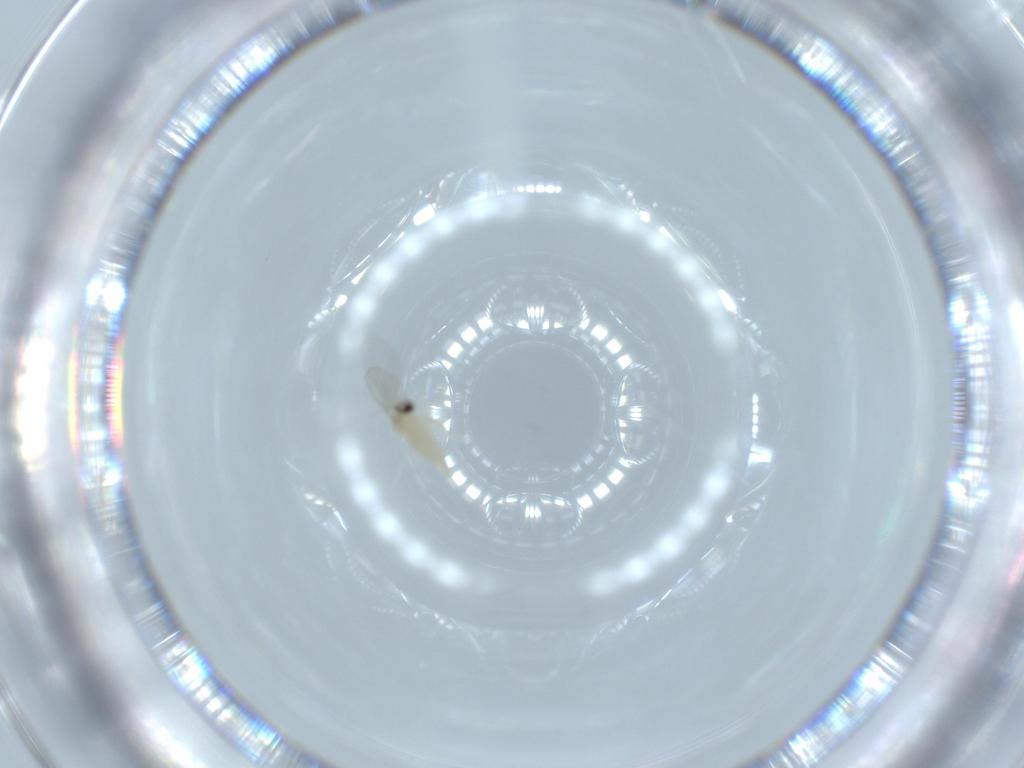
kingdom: Animalia
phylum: Arthropoda
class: Insecta
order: Diptera
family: Cecidomyiidae
